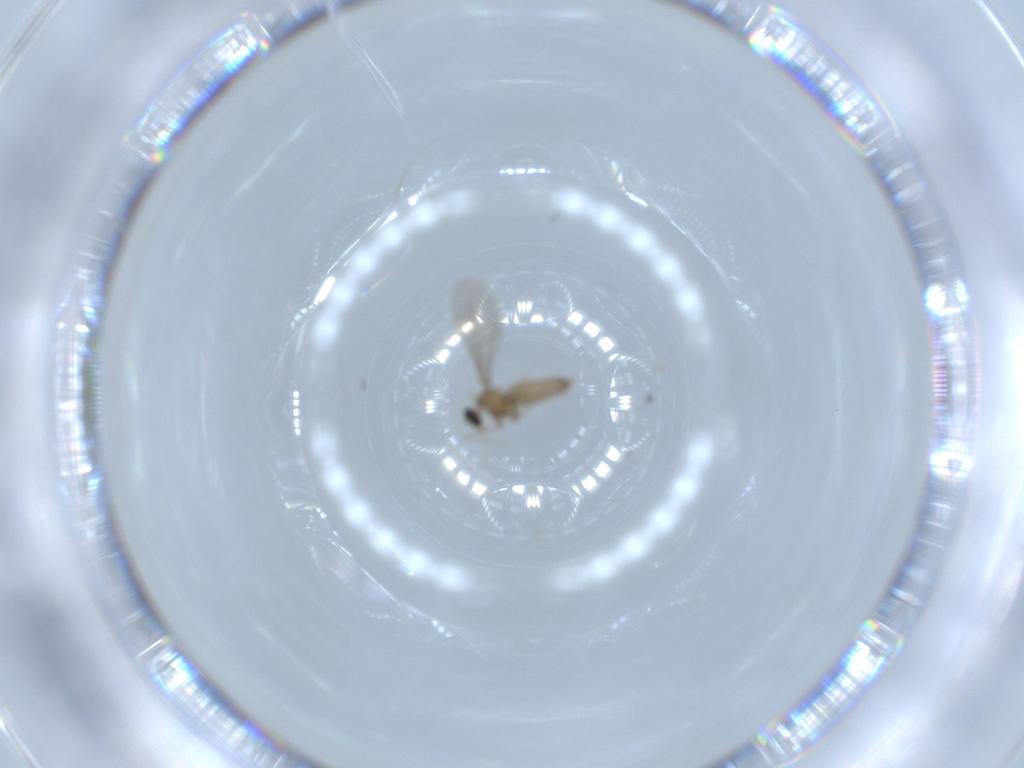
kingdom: Animalia
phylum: Arthropoda
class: Insecta
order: Diptera
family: Cecidomyiidae
